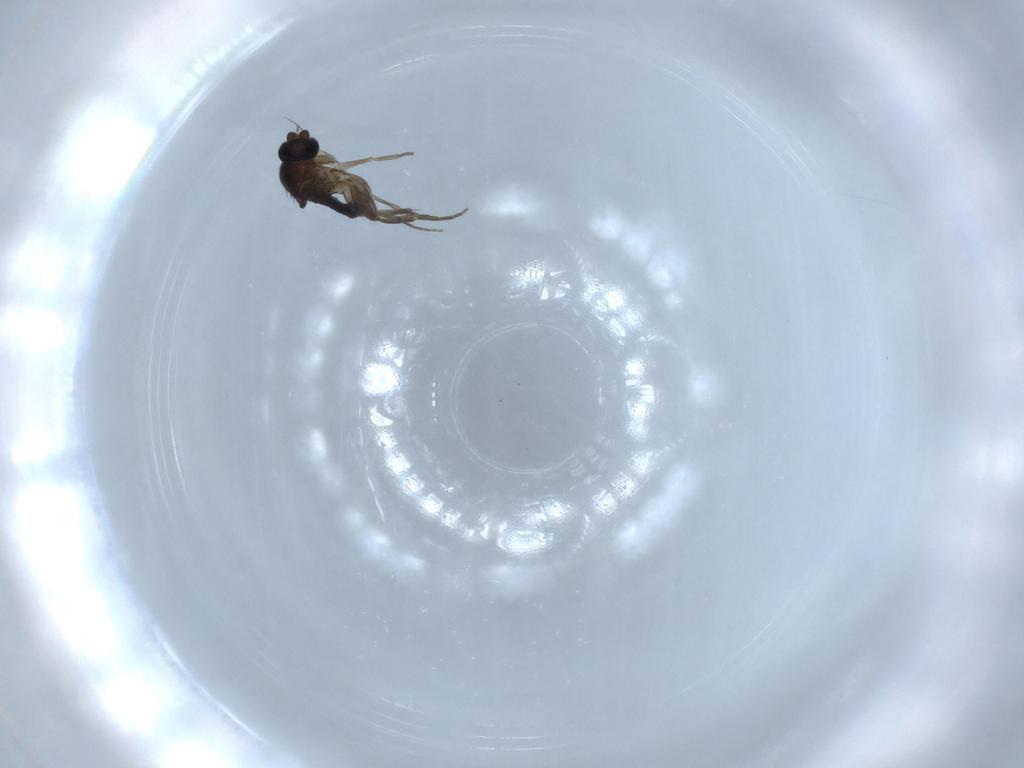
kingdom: Animalia
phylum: Arthropoda
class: Insecta
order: Diptera
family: Phoridae
